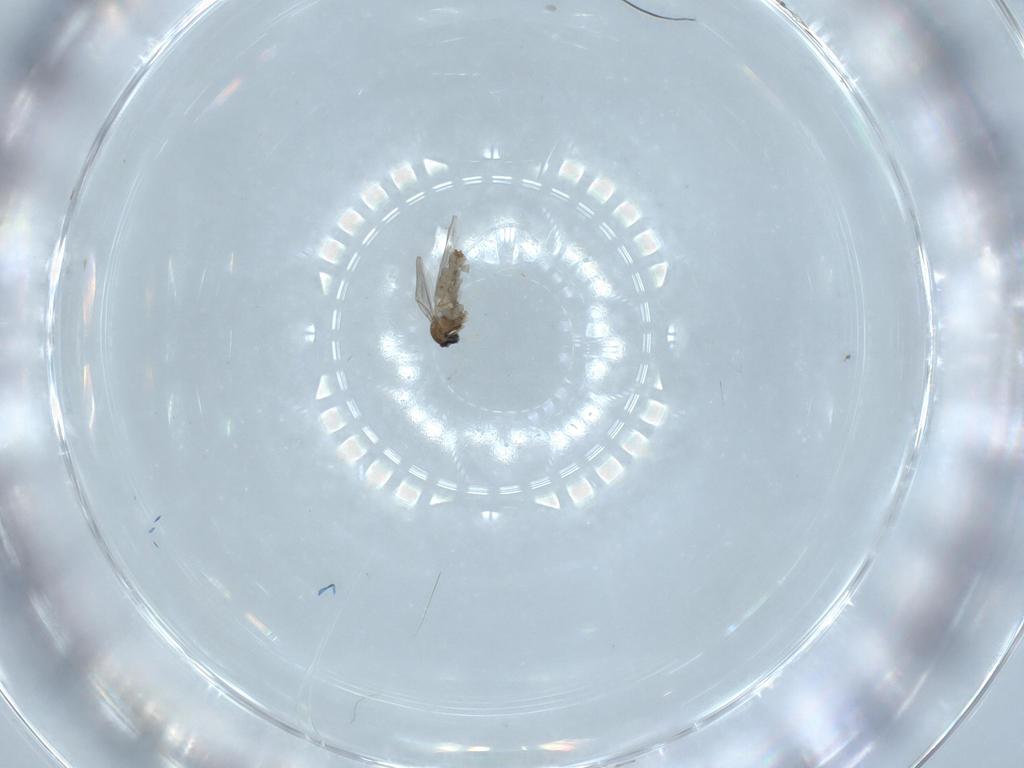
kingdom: Animalia
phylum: Arthropoda
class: Insecta
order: Diptera
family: Cecidomyiidae
